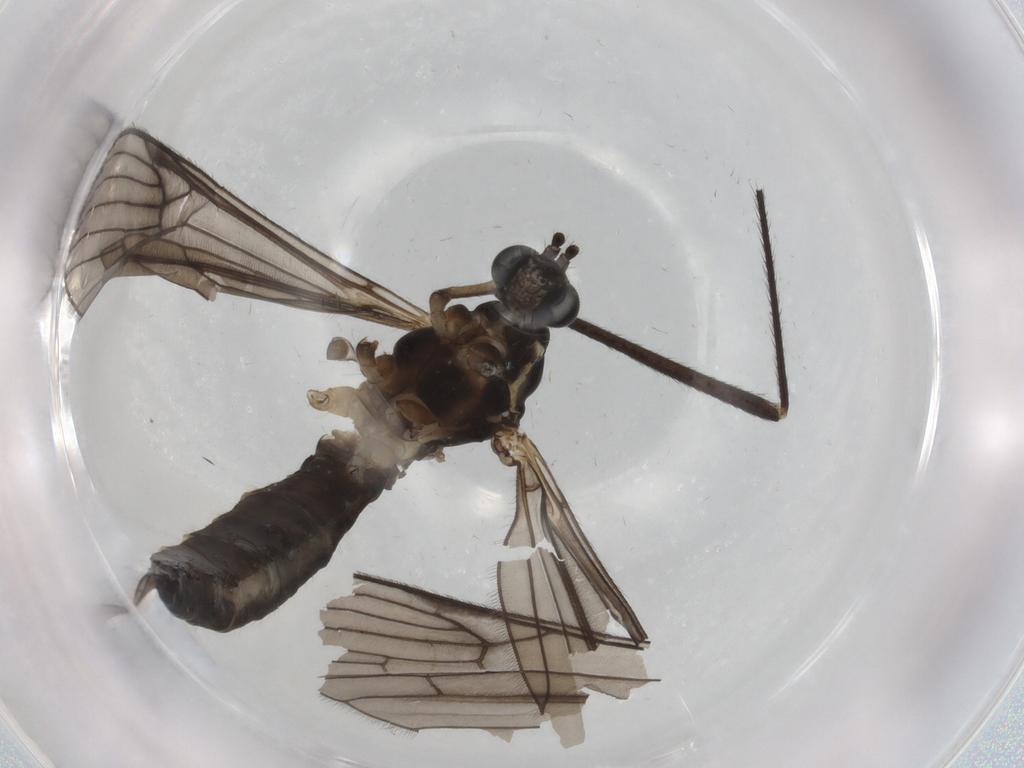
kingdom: Animalia
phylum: Arthropoda
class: Insecta
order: Diptera
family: Limoniidae
